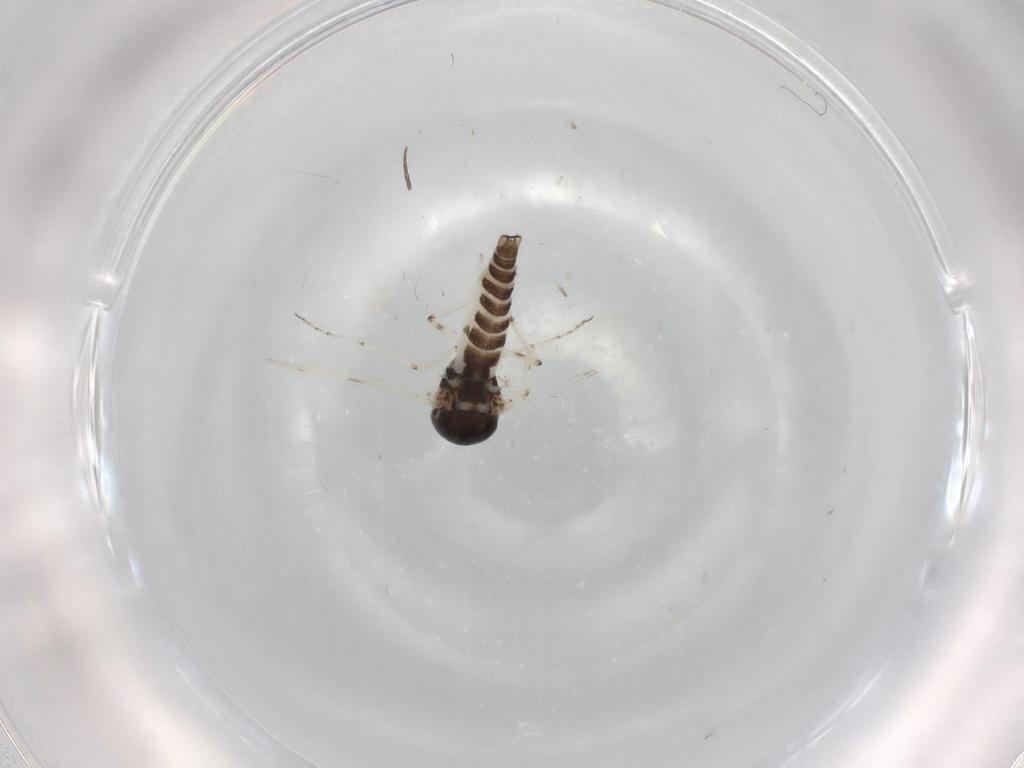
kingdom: Animalia
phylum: Arthropoda
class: Insecta
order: Diptera
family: Ceratopogonidae
